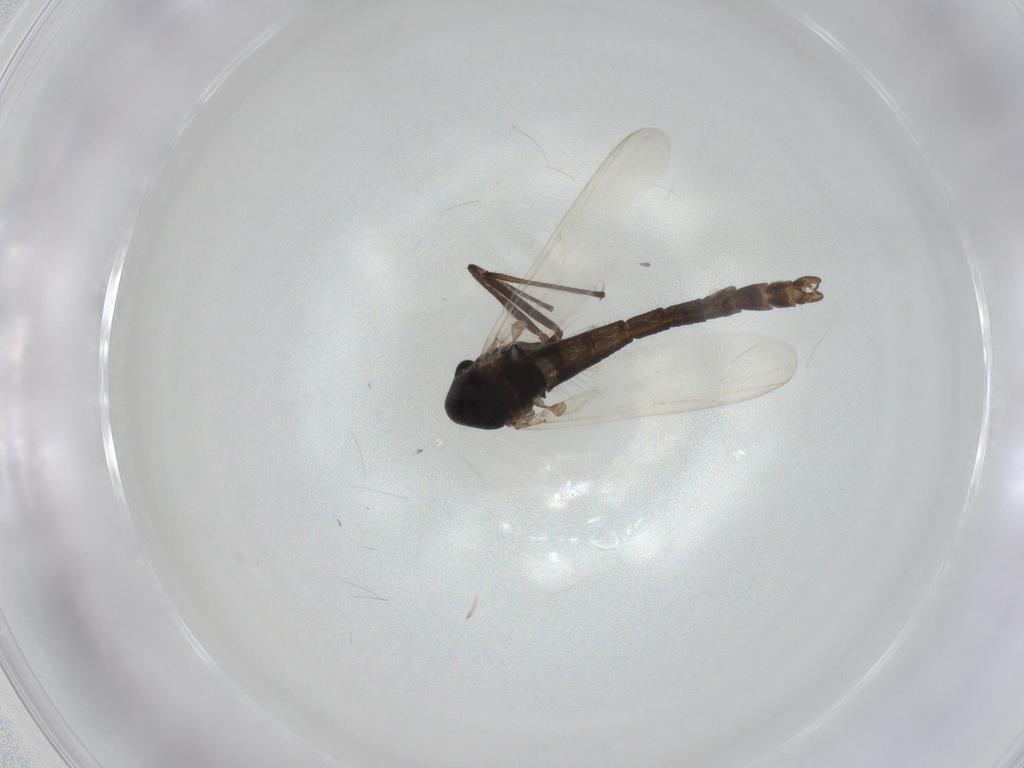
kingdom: Animalia
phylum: Arthropoda
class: Insecta
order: Diptera
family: Chironomidae
